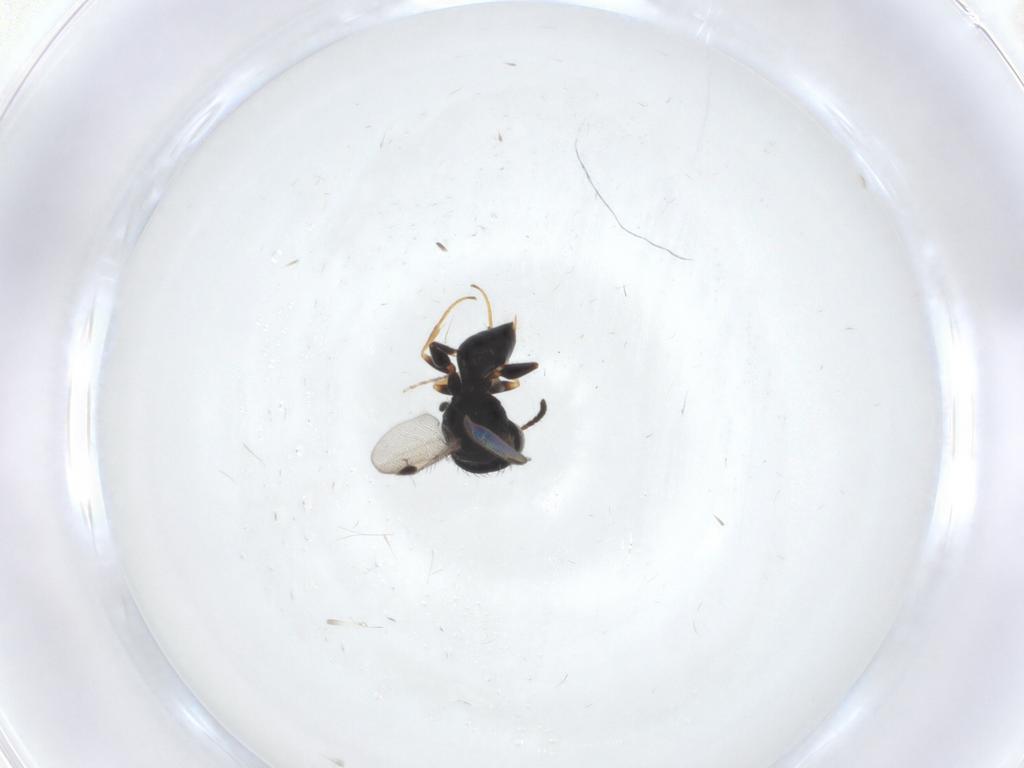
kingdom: Animalia
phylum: Arthropoda
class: Insecta
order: Hymenoptera
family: Dryinidae
